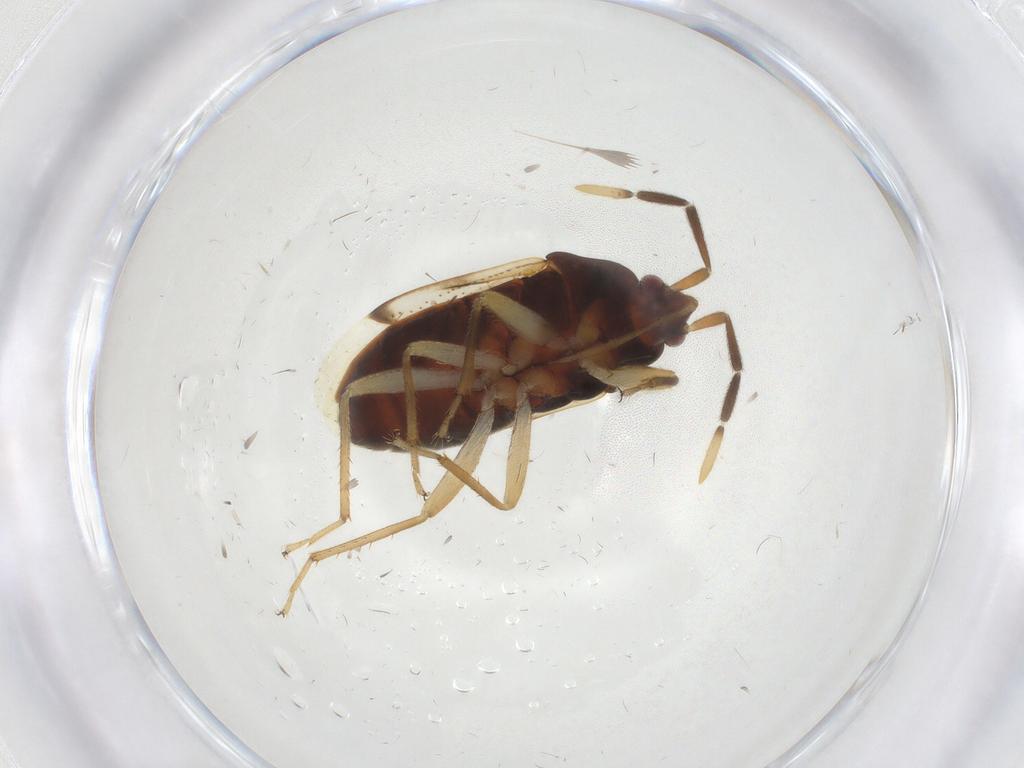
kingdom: Animalia
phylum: Arthropoda
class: Insecta
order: Hemiptera
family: Rhyparochromidae
